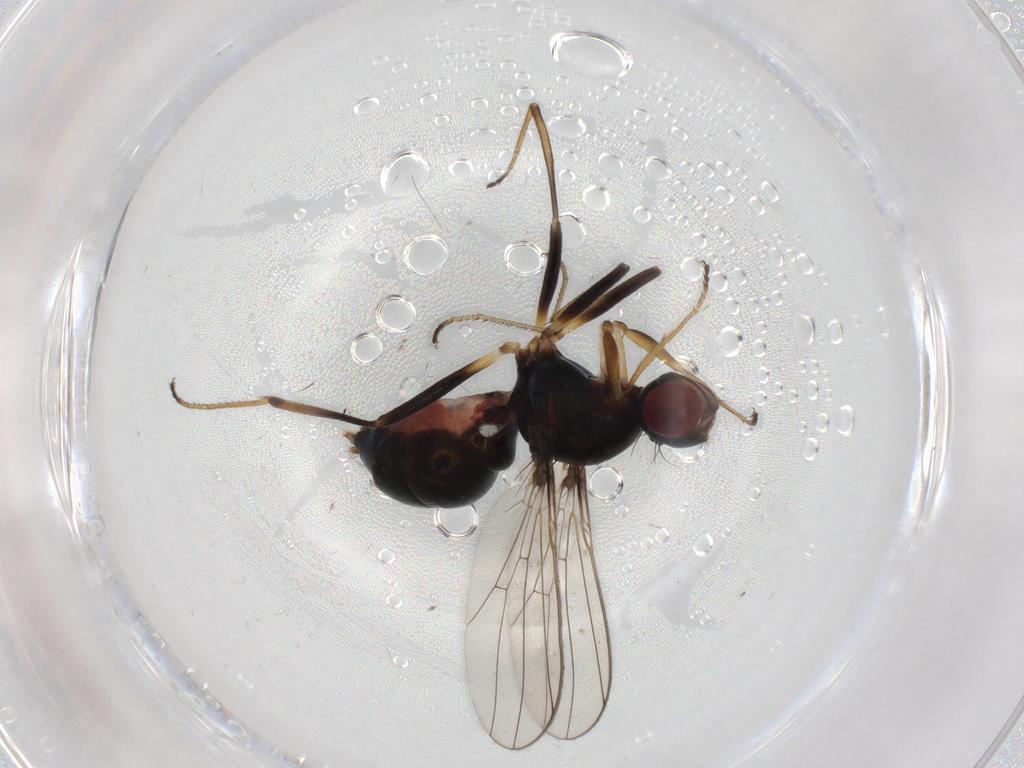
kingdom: Animalia
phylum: Arthropoda
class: Insecta
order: Diptera
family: Sepsidae
